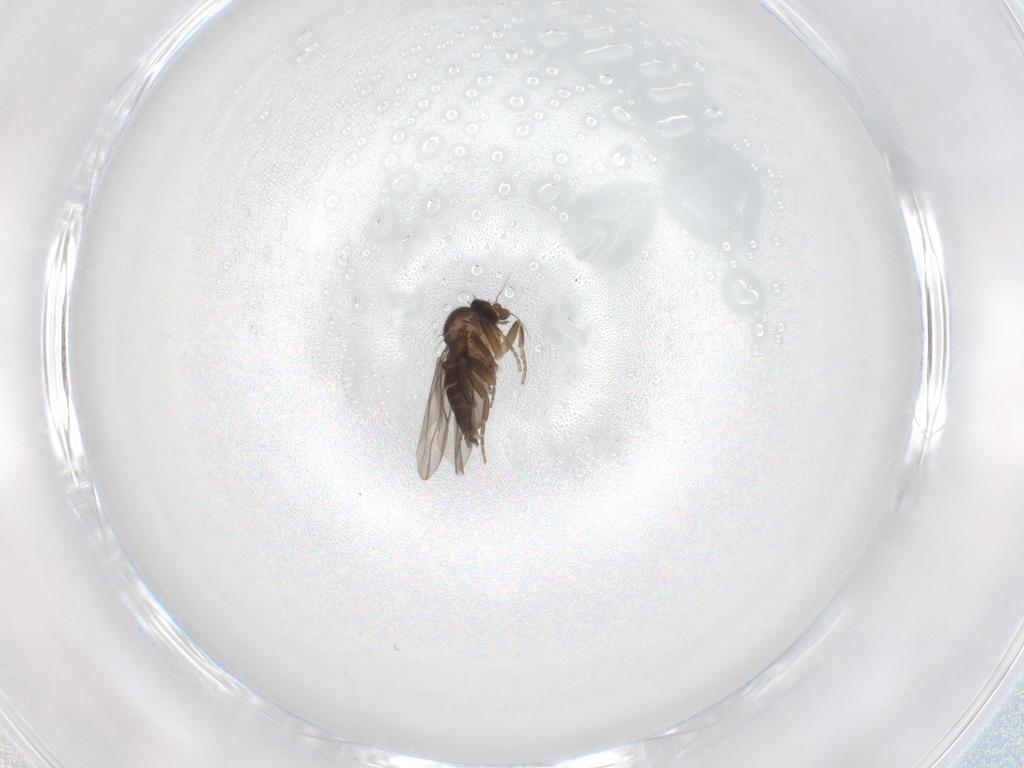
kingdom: Animalia
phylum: Arthropoda
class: Insecta
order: Diptera
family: Phoridae
